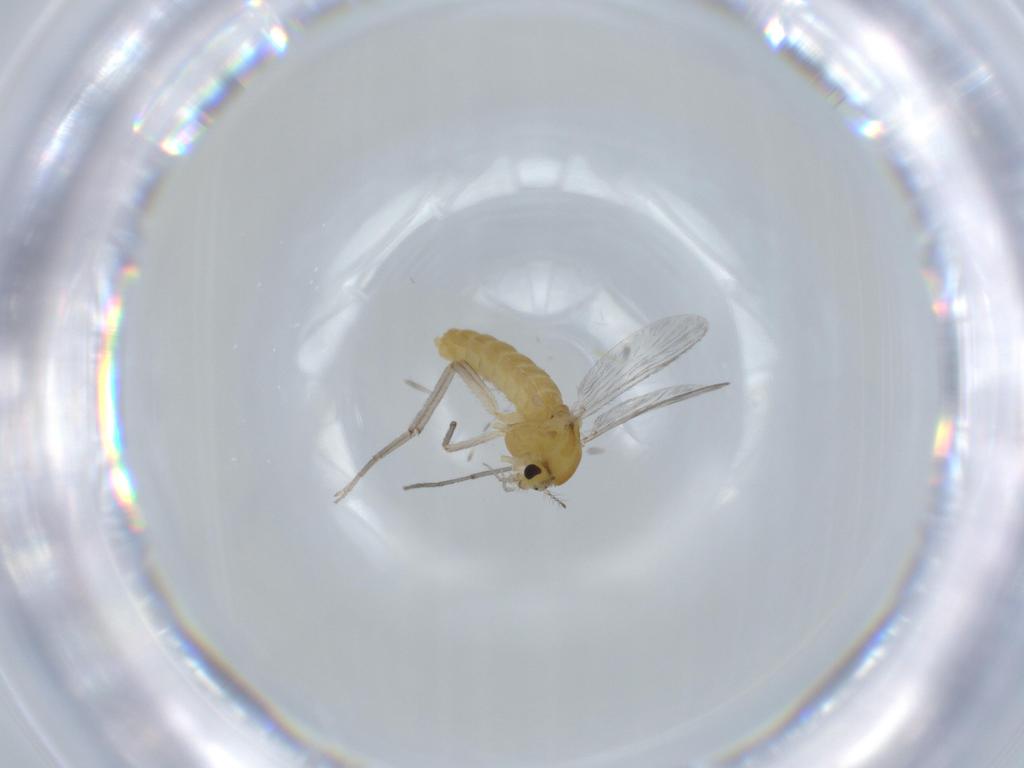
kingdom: Animalia
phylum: Arthropoda
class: Insecta
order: Diptera
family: Chironomidae
